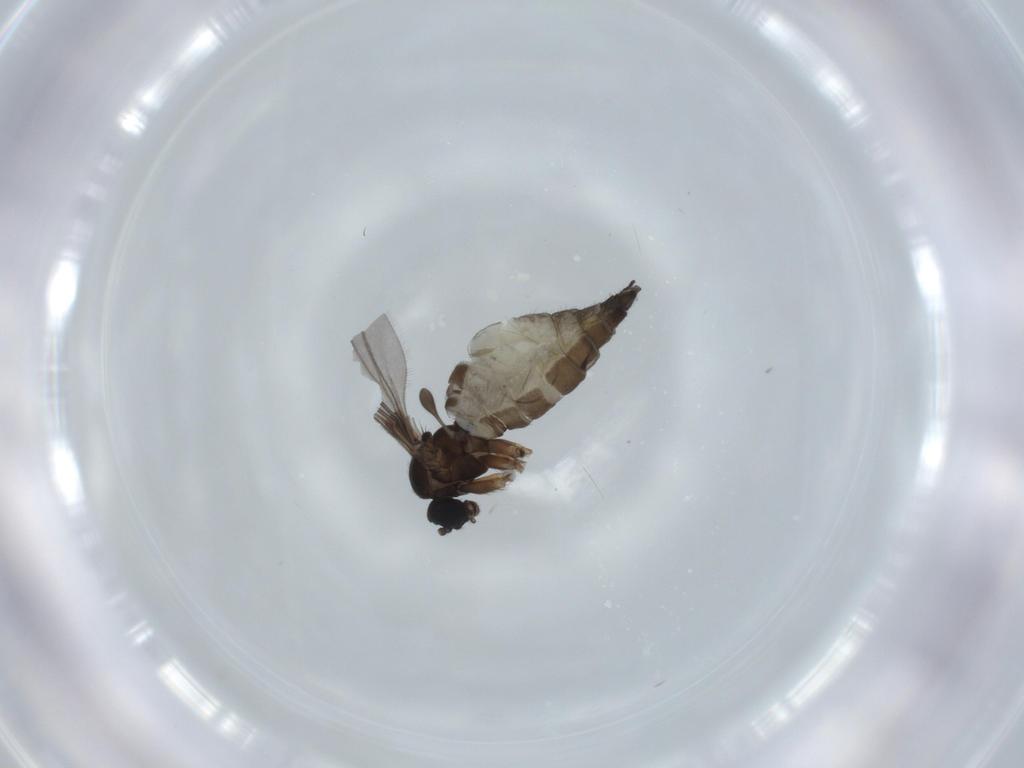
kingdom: Animalia
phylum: Arthropoda
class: Insecta
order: Diptera
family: Sciaridae
